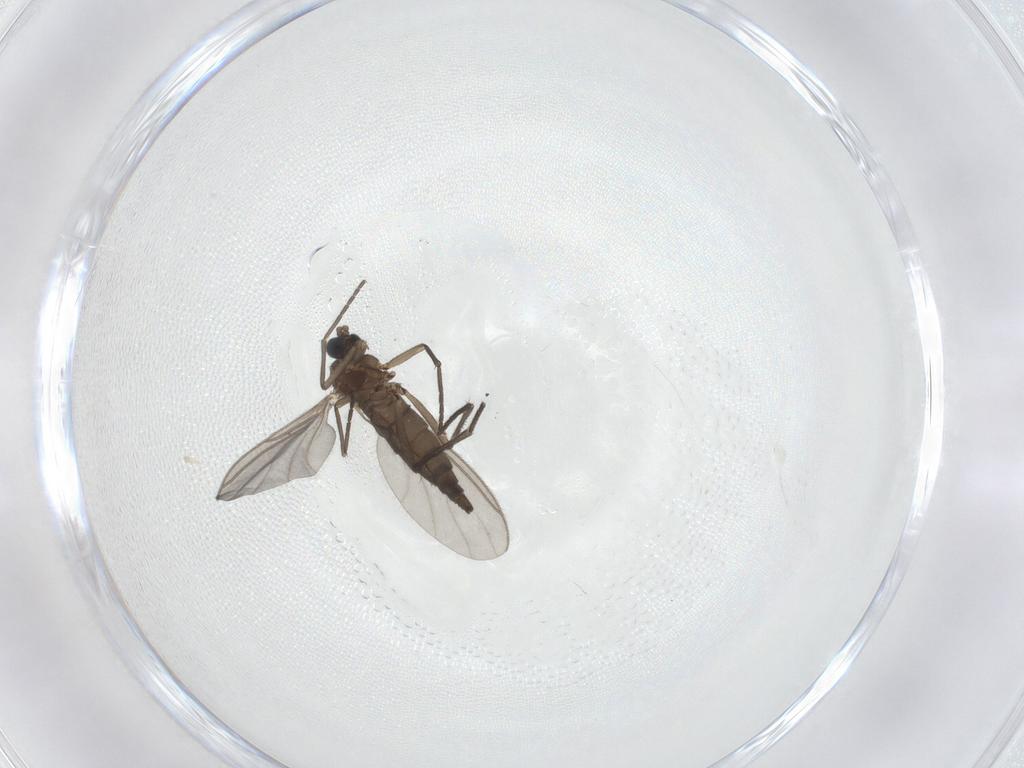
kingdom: Animalia
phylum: Arthropoda
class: Insecta
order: Diptera
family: Sciaridae
